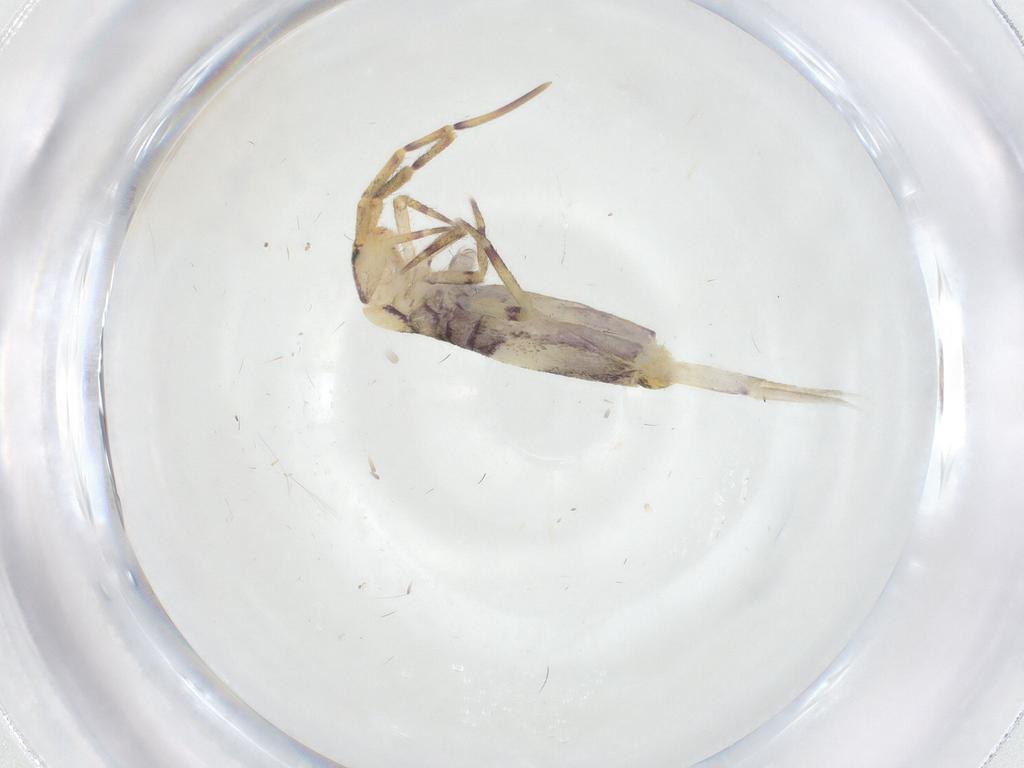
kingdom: Animalia
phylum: Arthropoda
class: Collembola
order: Entomobryomorpha
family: Entomobryidae
